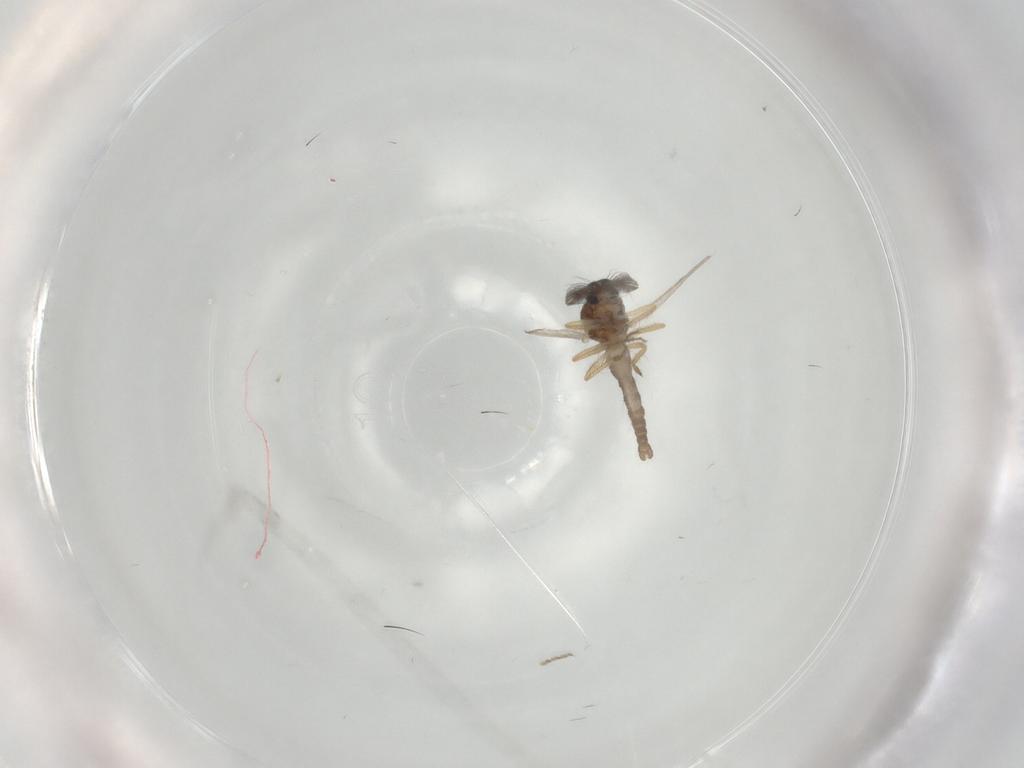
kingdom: Animalia
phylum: Arthropoda
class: Insecta
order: Diptera
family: Ceratopogonidae
